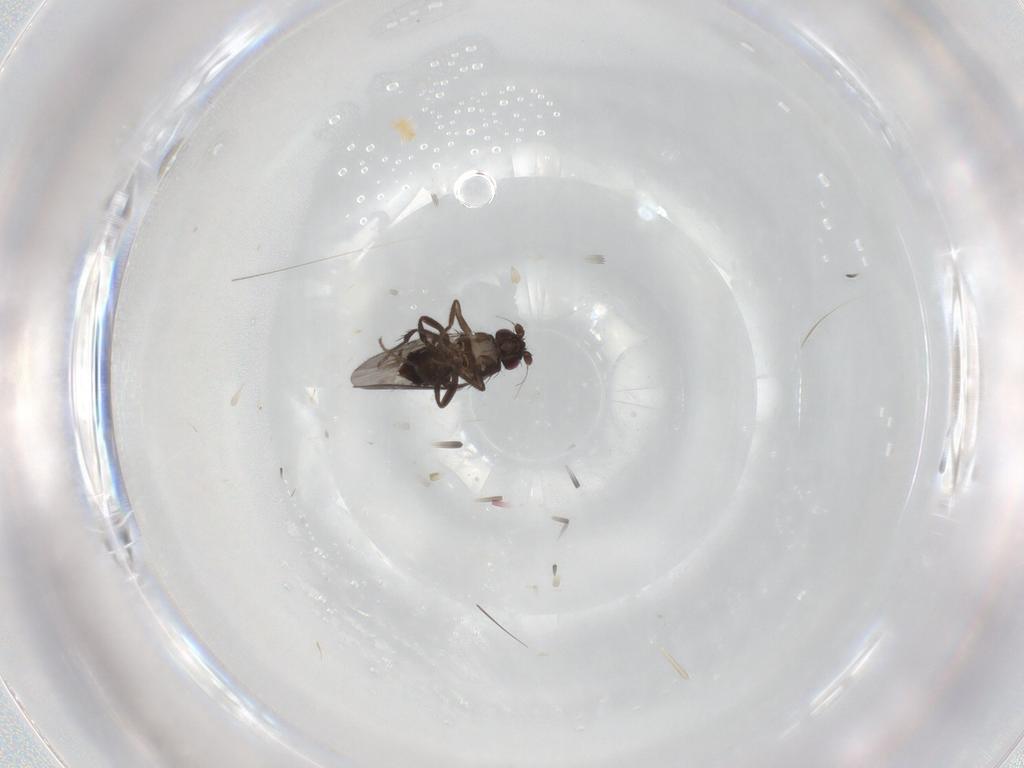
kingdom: Animalia
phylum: Arthropoda
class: Insecta
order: Diptera
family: Sphaeroceridae
